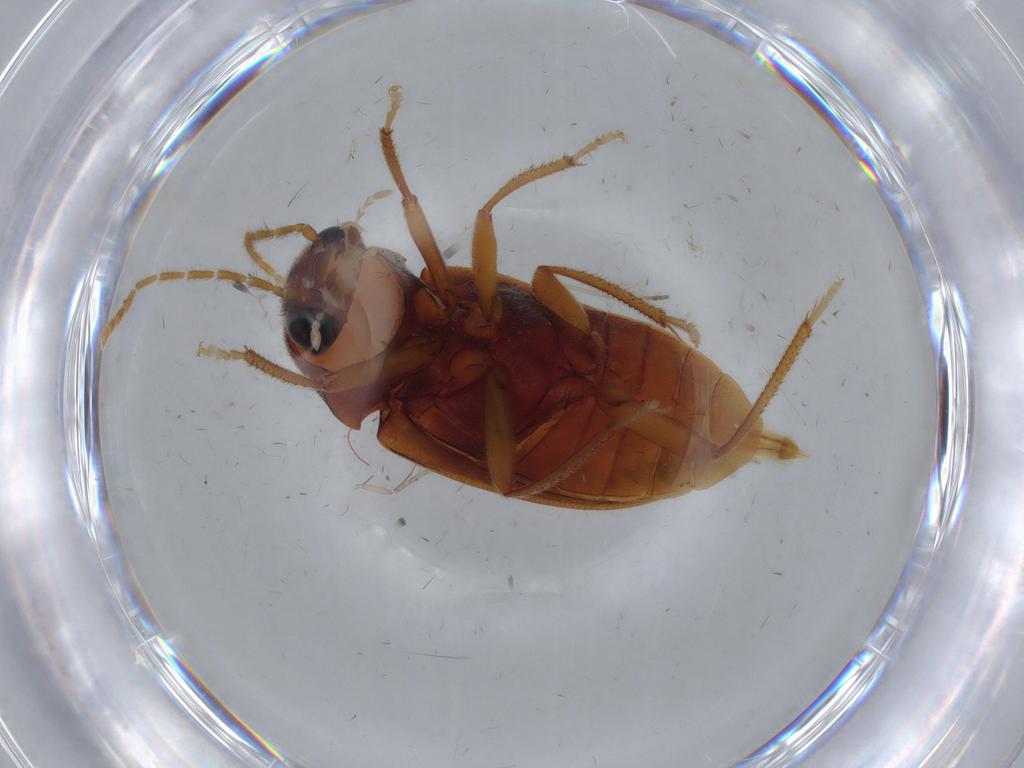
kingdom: Animalia
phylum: Arthropoda
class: Insecta
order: Coleoptera
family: Ptilodactylidae
